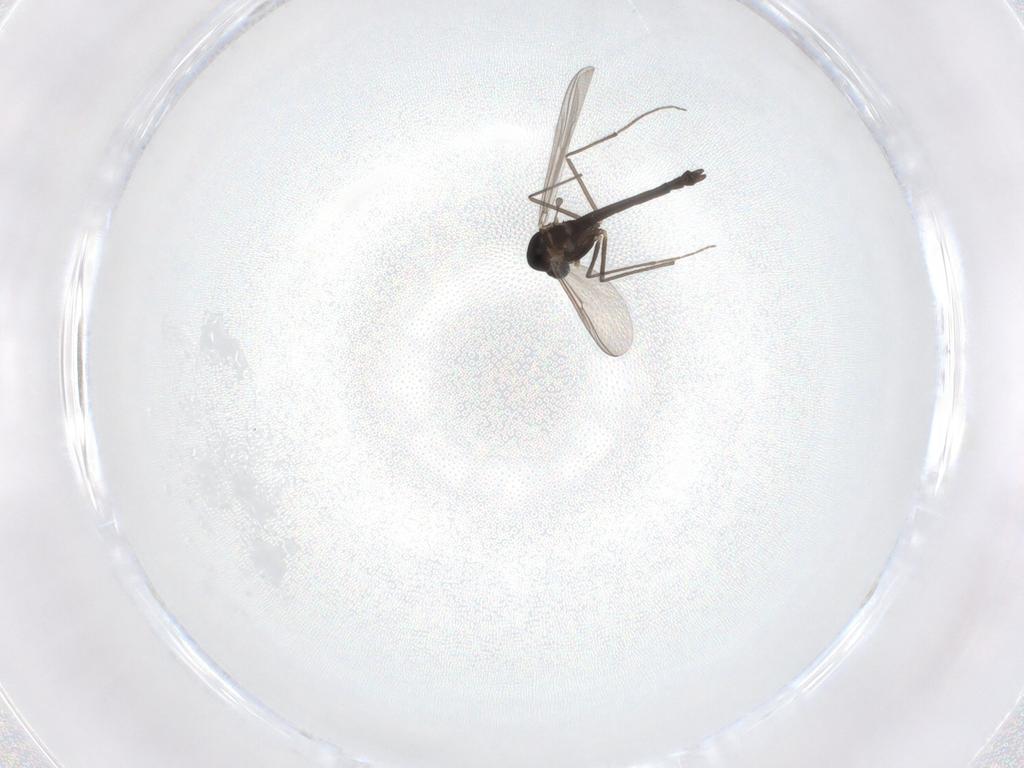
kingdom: Animalia
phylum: Arthropoda
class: Insecta
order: Diptera
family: Chironomidae
